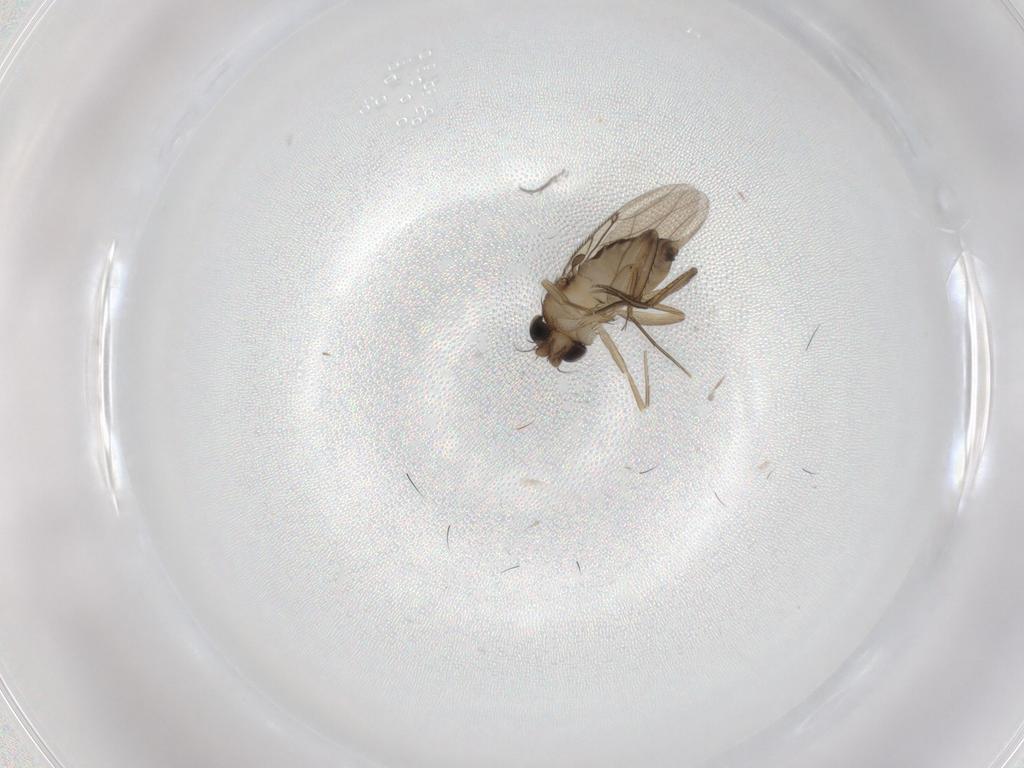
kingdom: Animalia
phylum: Arthropoda
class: Insecta
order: Diptera
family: Phoridae
